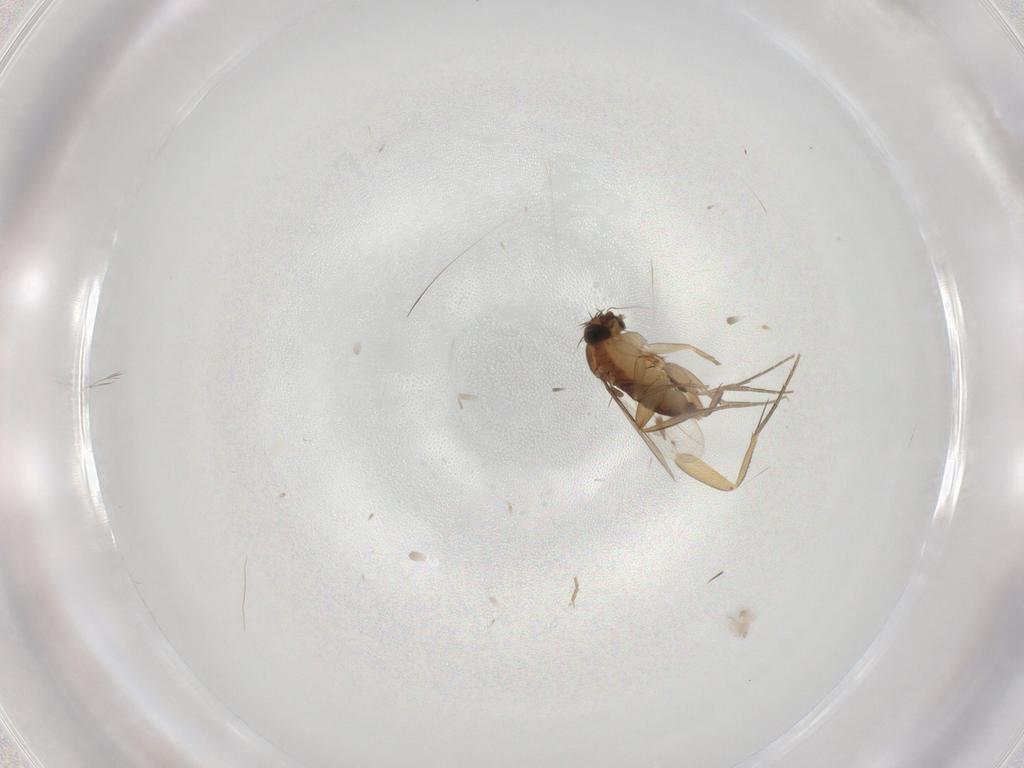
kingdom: Animalia
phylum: Arthropoda
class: Insecta
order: Diptera
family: Phoridae
